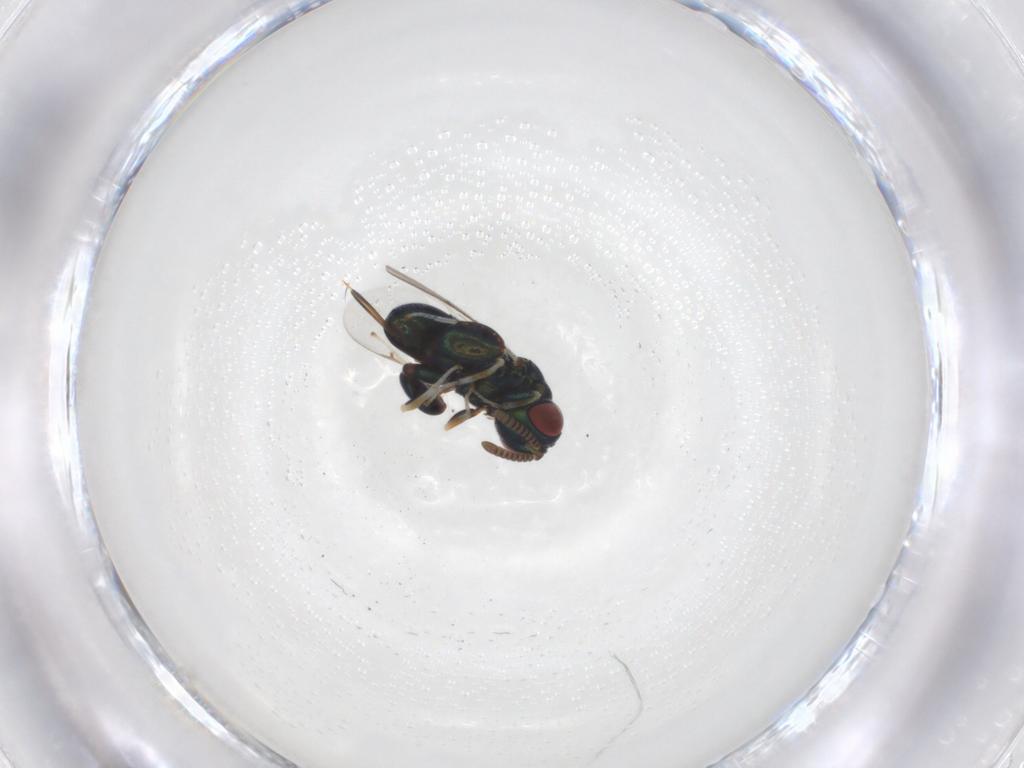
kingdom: Animalia
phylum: Arthropoda
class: Insecta
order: Hymenoptera
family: Torymidae
